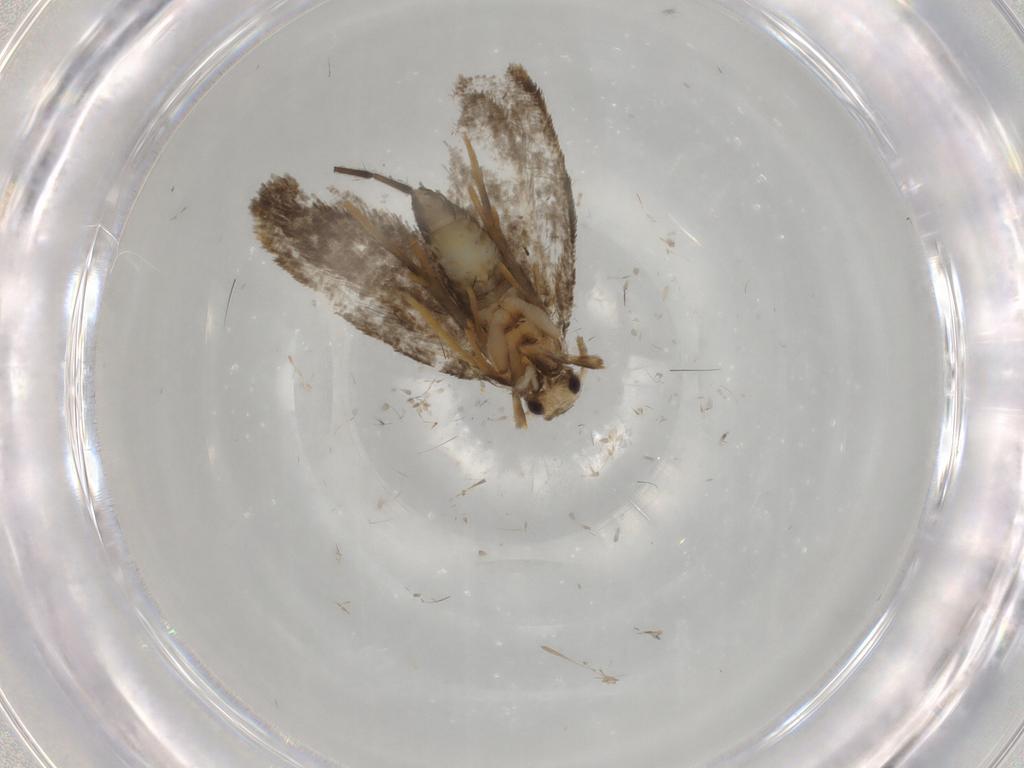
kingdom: Animalia
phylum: Arthropoda
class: Insecta
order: Lepidoptera
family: Psychidae
